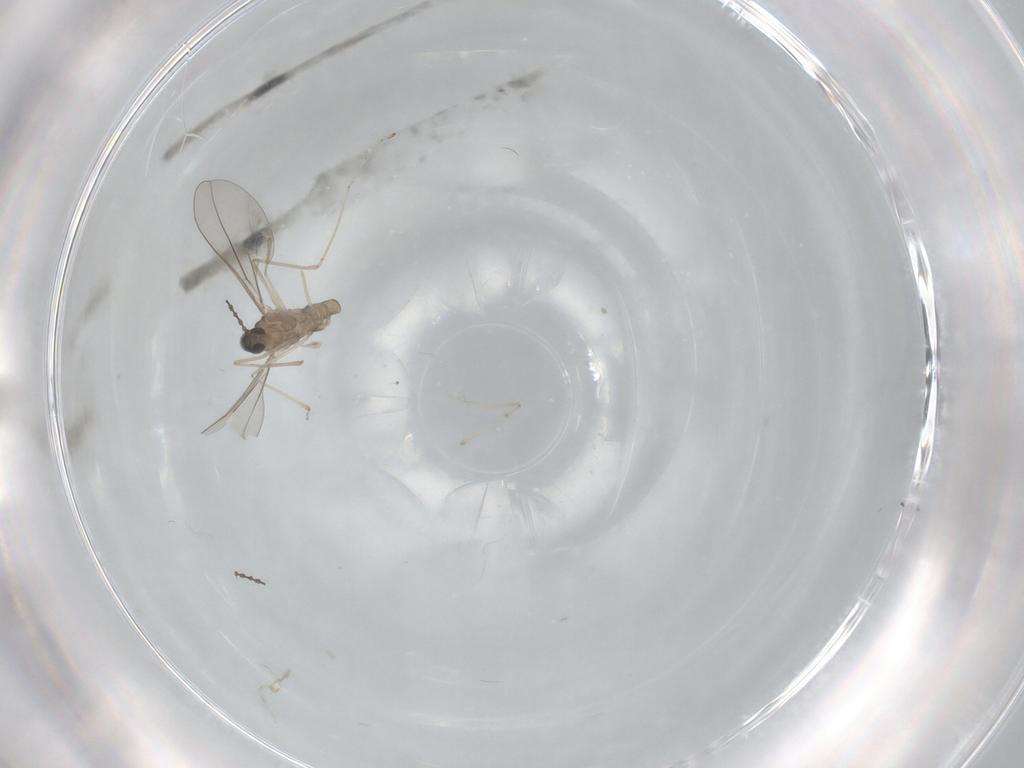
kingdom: Animalia
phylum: Arthropoda
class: Insecta
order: Diptera
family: Cecidomyiidae
